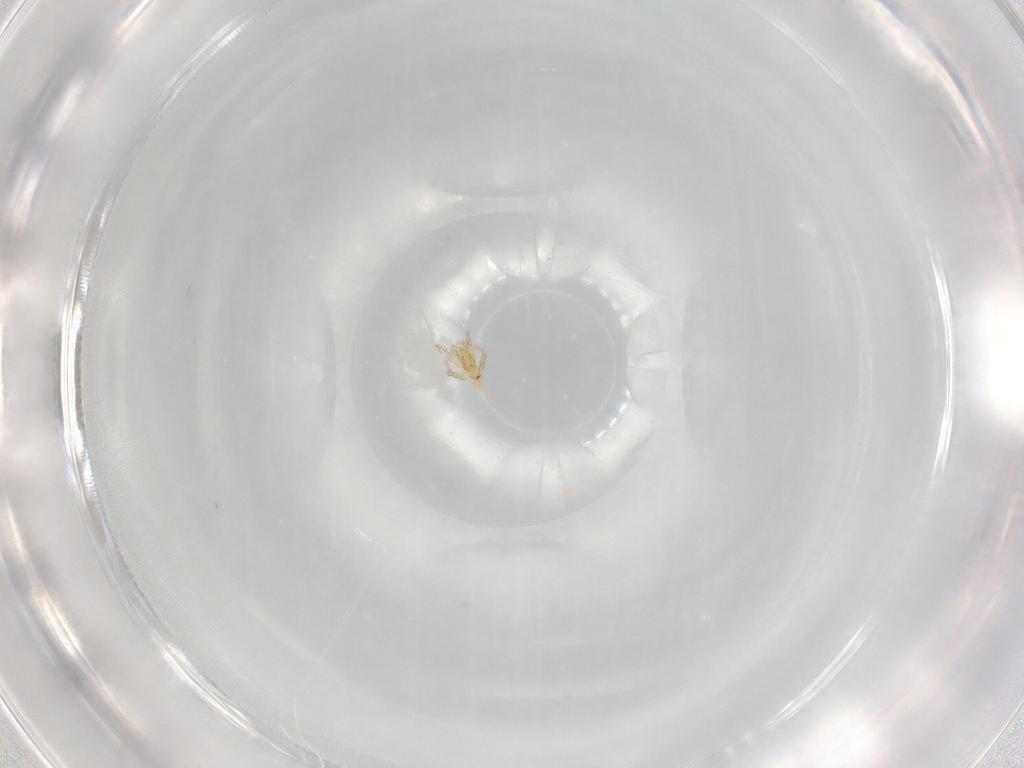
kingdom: Animalia
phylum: Arthropoda
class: Arachnida
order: Trombidiformes
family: Erythraeidae
